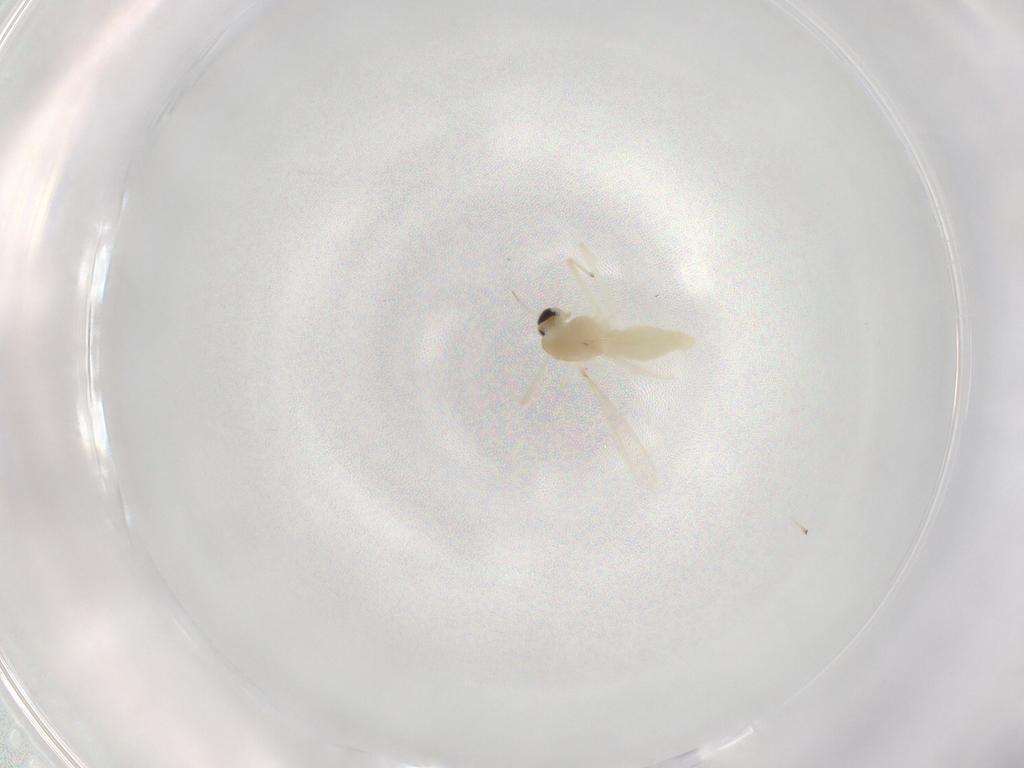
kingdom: Animalia
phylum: Arthropoda
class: Insecta
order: Diptera
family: Chironomidae
